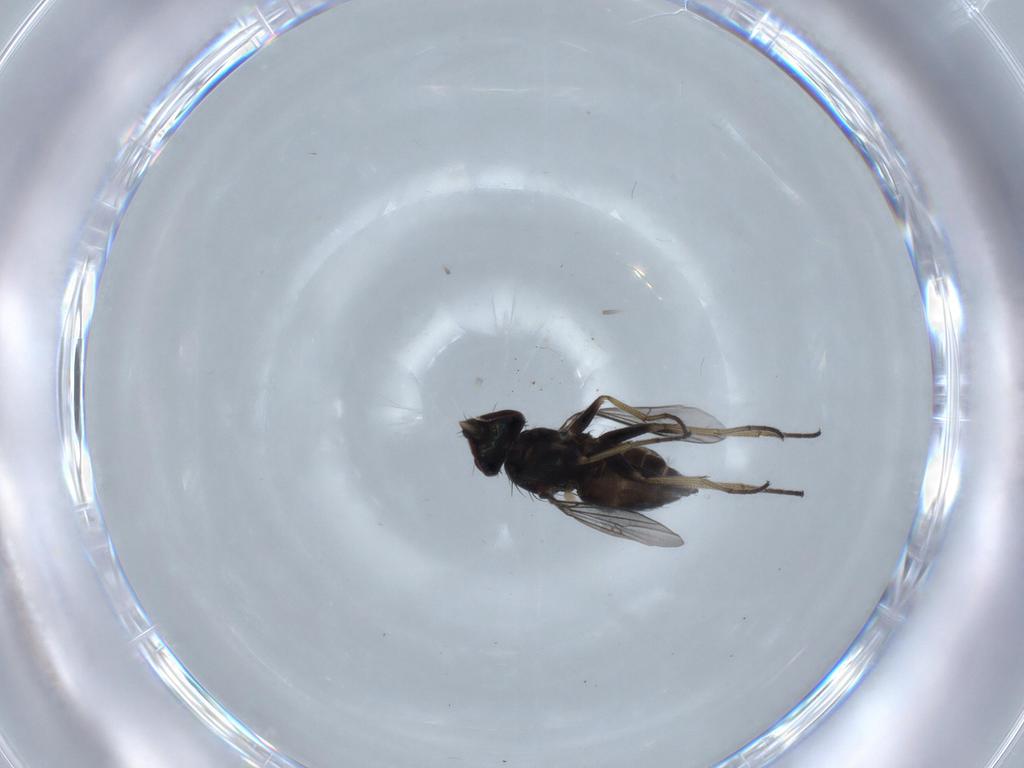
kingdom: Animalia
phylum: Arthropoda
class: Insecta
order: Diptera
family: Dolichopodidae
